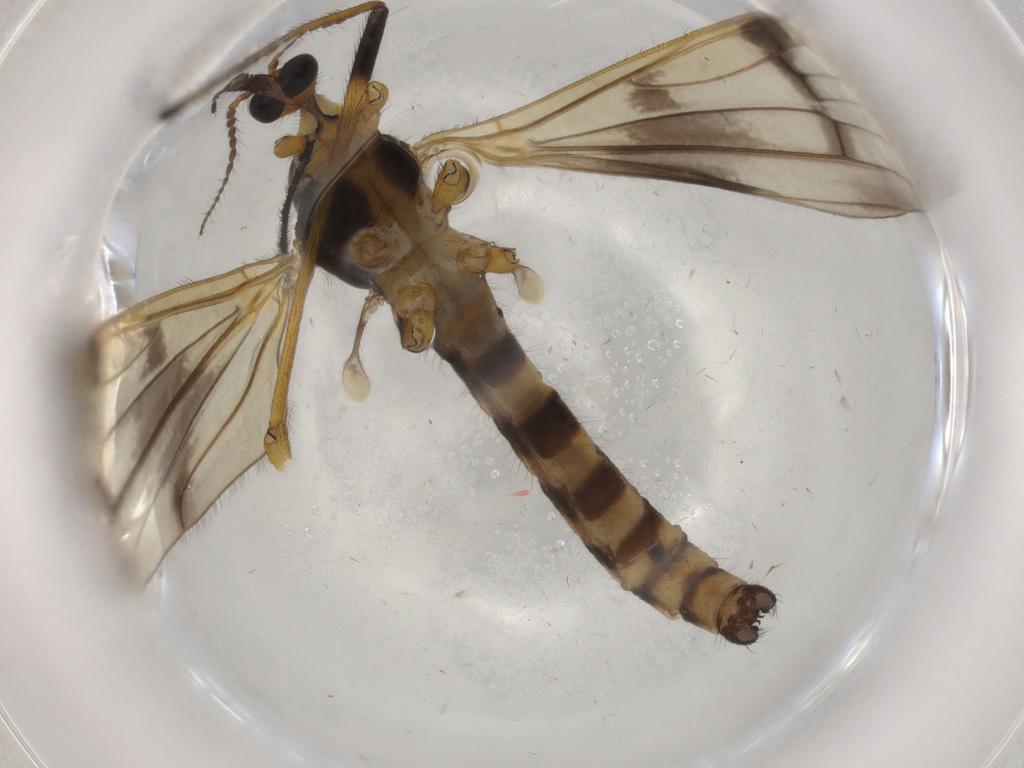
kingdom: Animalia
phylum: Arthropoda
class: Insecta
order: Diptera
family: Limoniidae
